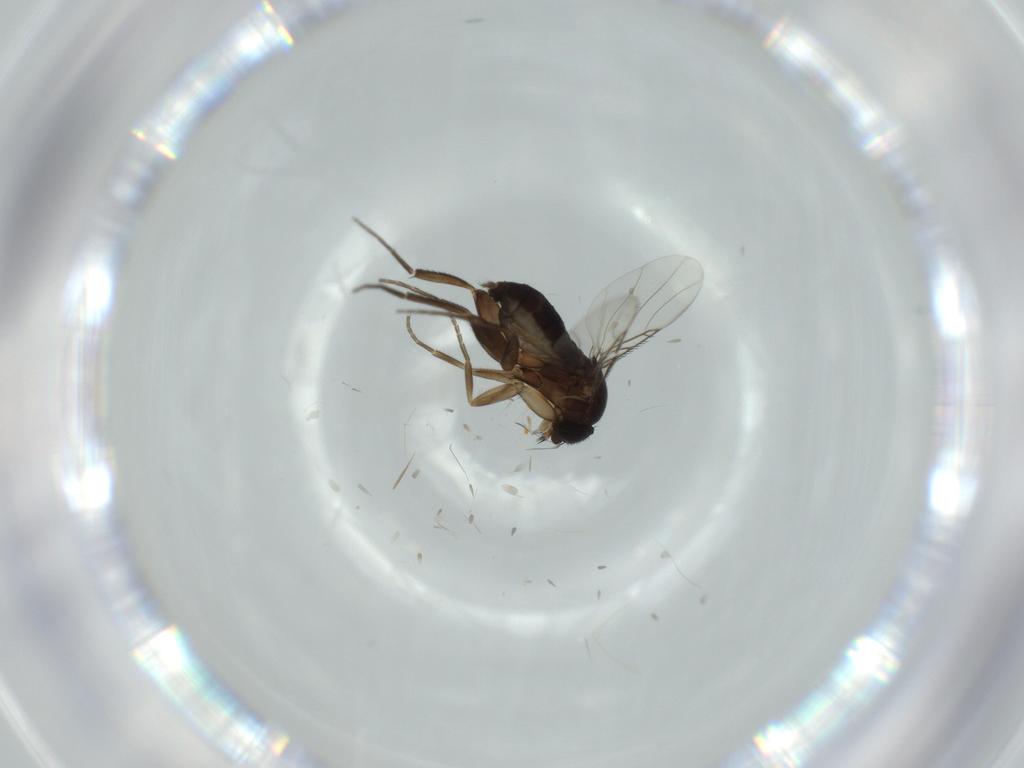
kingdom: Animalia
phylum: Arthropoda
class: Insecta
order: Diptera
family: Phoridae
